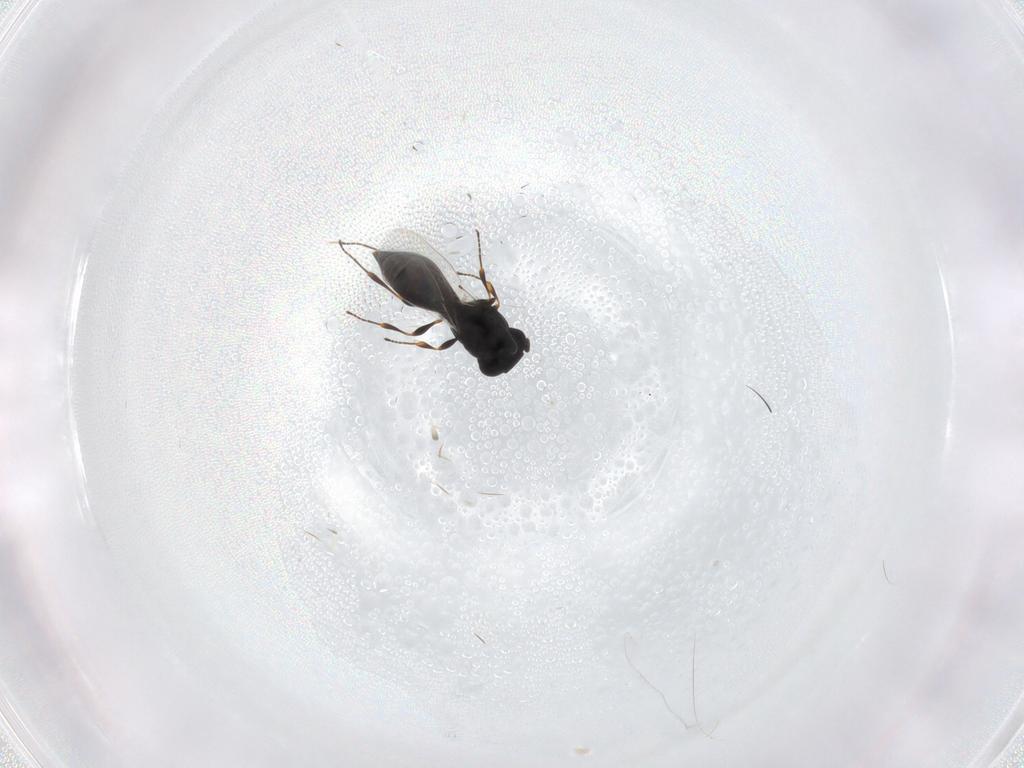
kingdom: Animalia
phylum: Arthropoda
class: Insecta
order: Hymenoptera
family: Platygastridae
